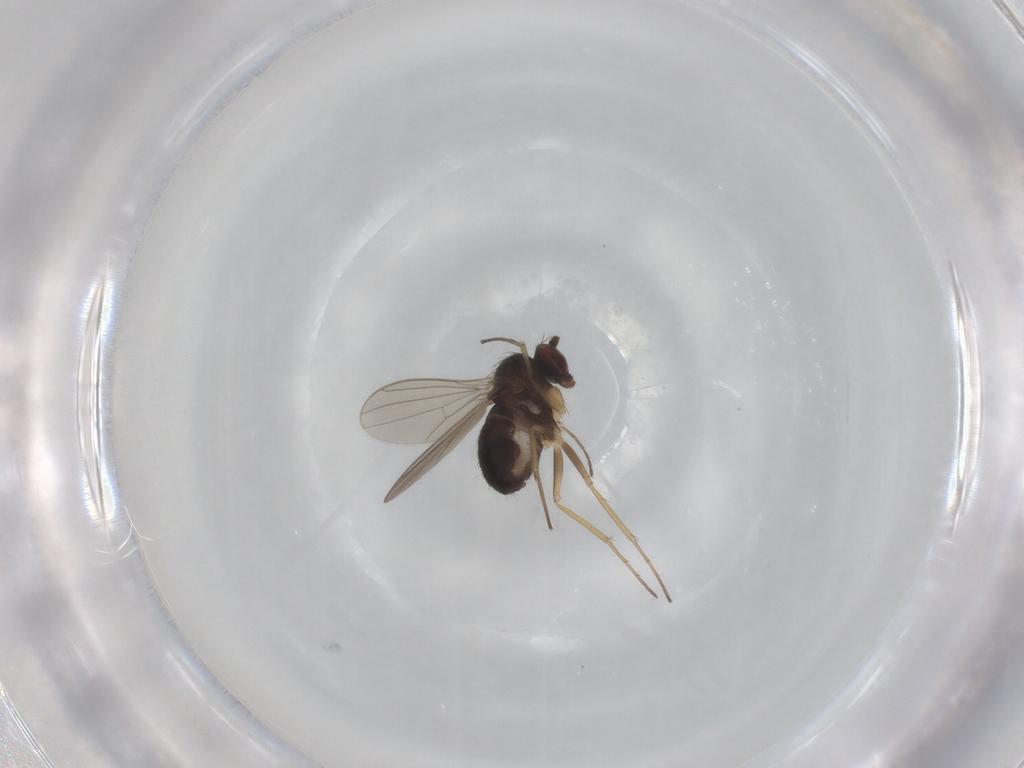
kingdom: Animalia
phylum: Arthropoda
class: Insecta
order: Diptera
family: Dolichopodidae
